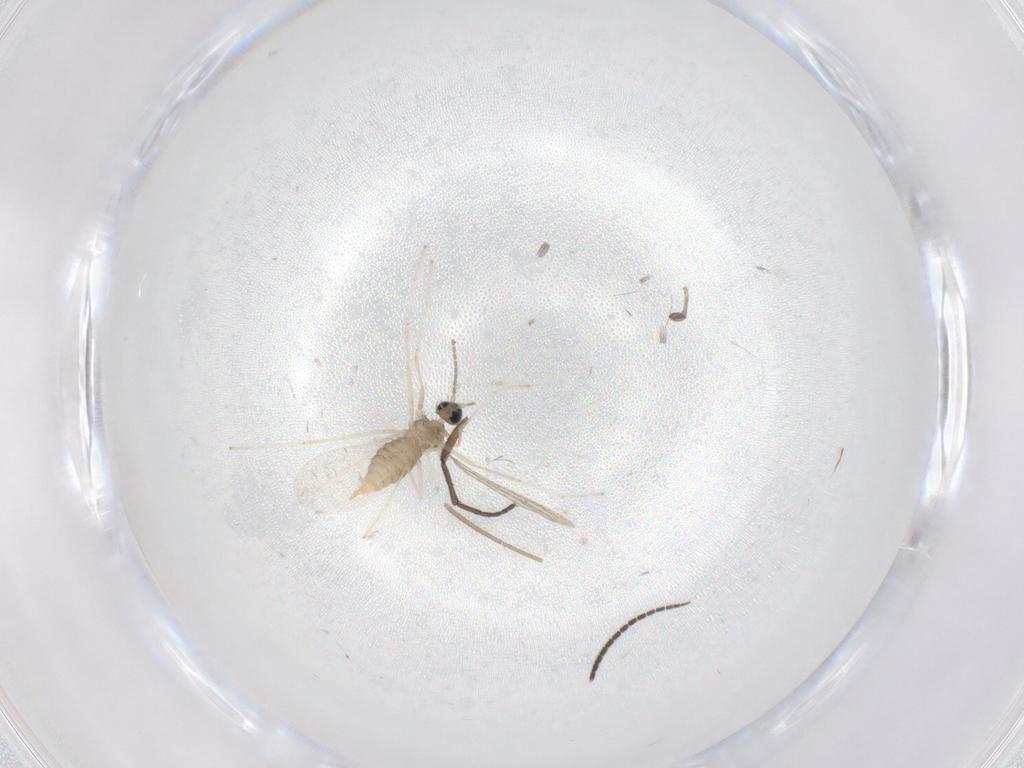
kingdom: Animalia
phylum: Arthropoda
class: Insecta
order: Diptera
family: Cecidomyiidae
